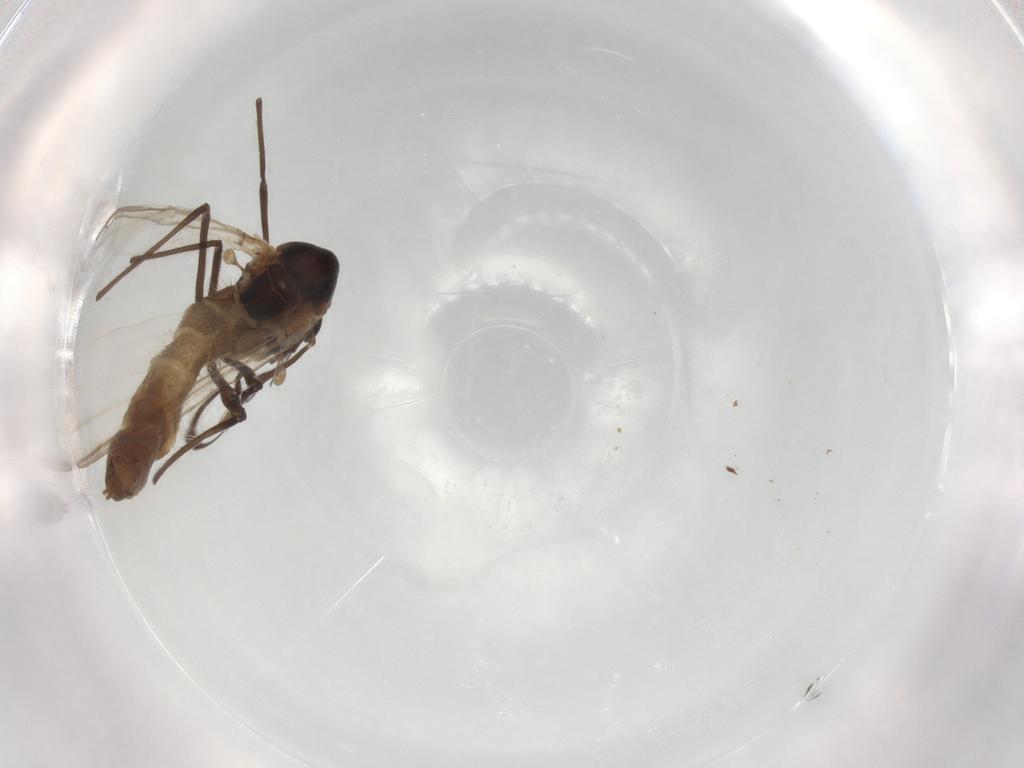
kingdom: Animalia
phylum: Arthropoda
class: Insecta
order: Diptera
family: Chironomidae
